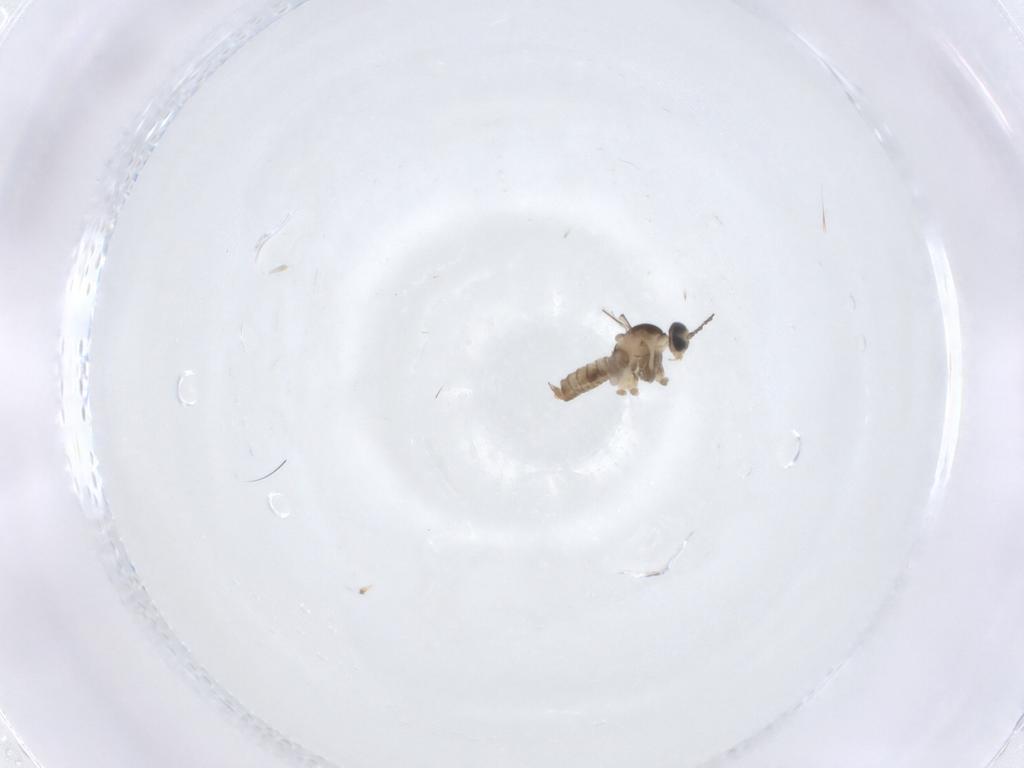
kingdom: Animalia
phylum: Arthropoda
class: Insecta
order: Diptera
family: Cecidomyiidae
